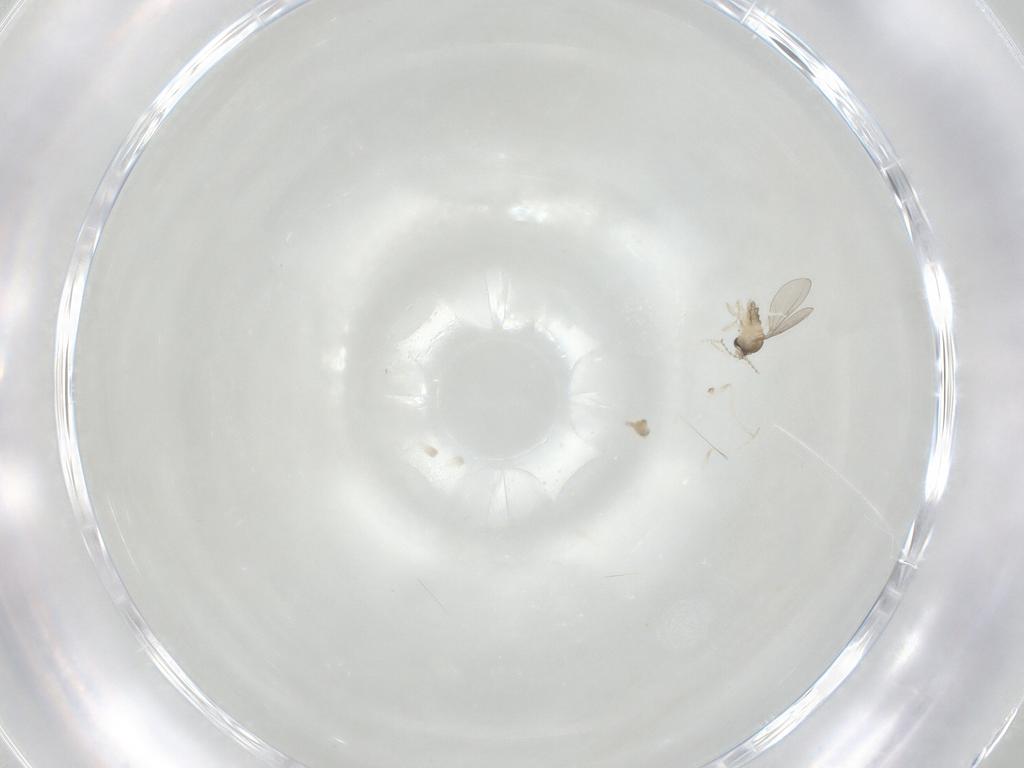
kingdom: Animalia
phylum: Arthropoda
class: Insecta
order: Diptera
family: Cecidomyiidae
